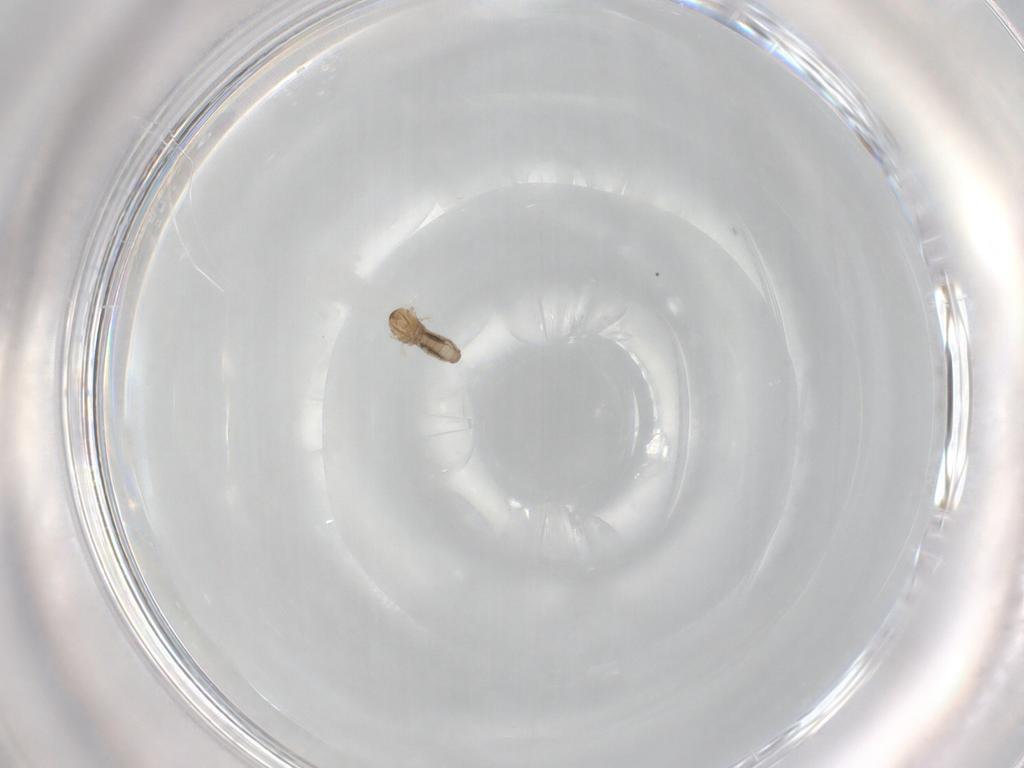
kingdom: Animalia
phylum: Arthropoda
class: Insecta
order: Diptera
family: Cecidomyiidae
